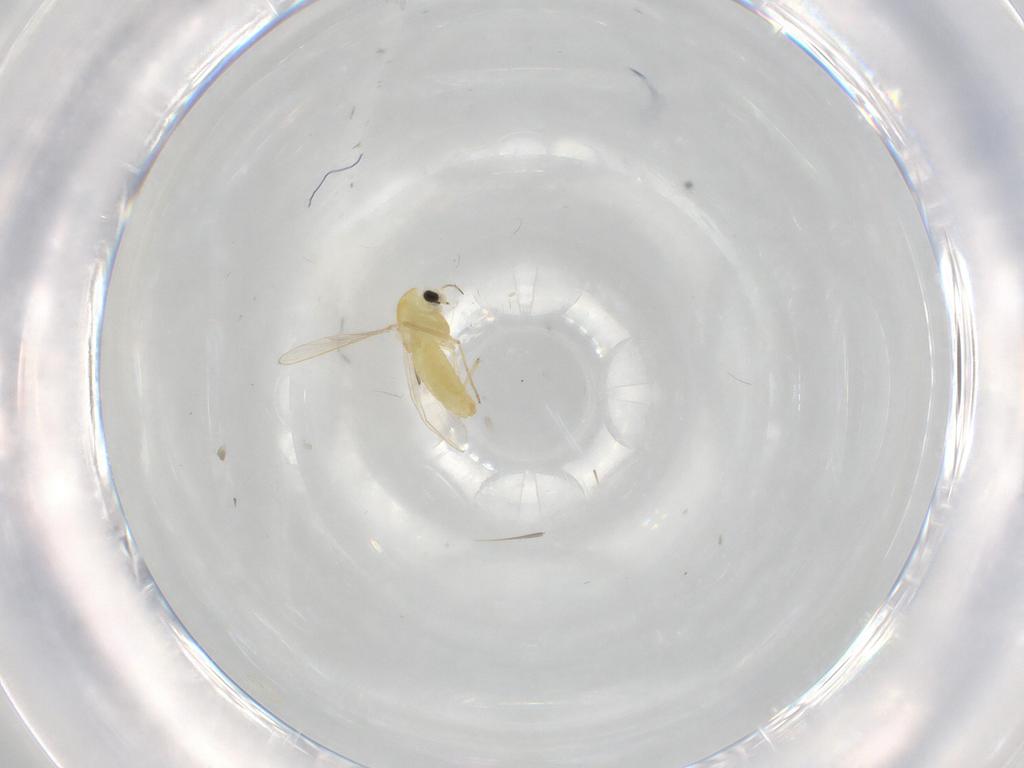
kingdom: Animalia
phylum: Arthropoda
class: Insecta
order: Diptera
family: Chironomidae
